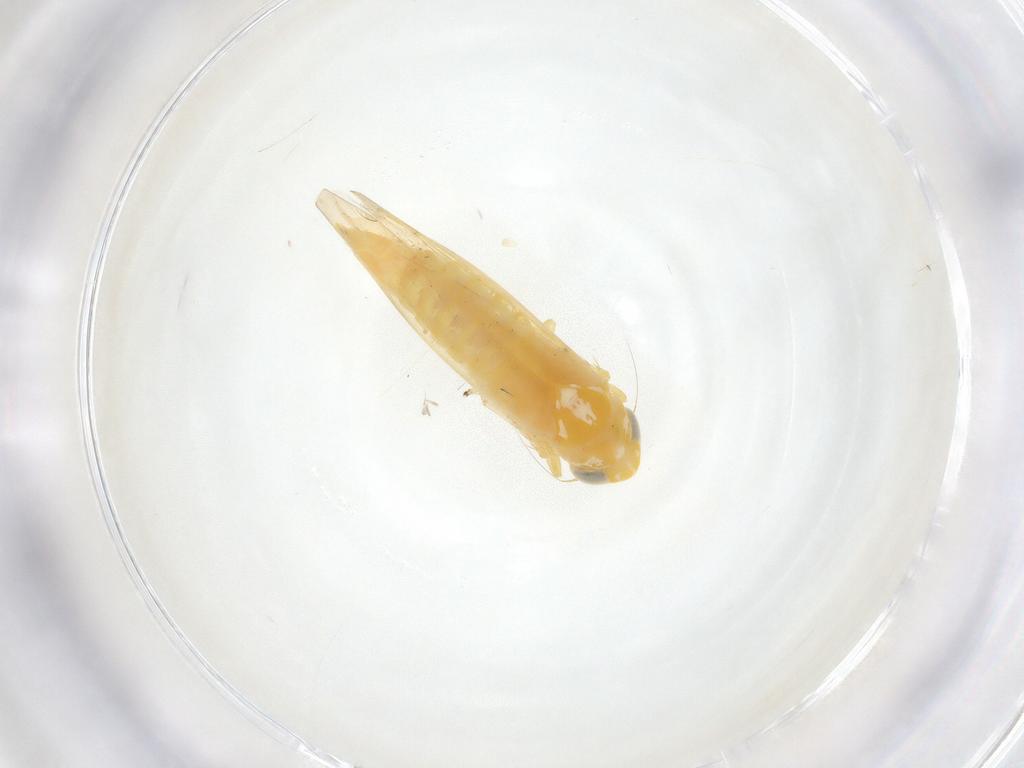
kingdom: Animalia
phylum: Arthropoda
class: Insecta
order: Hemiptera
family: Cicadellidae
